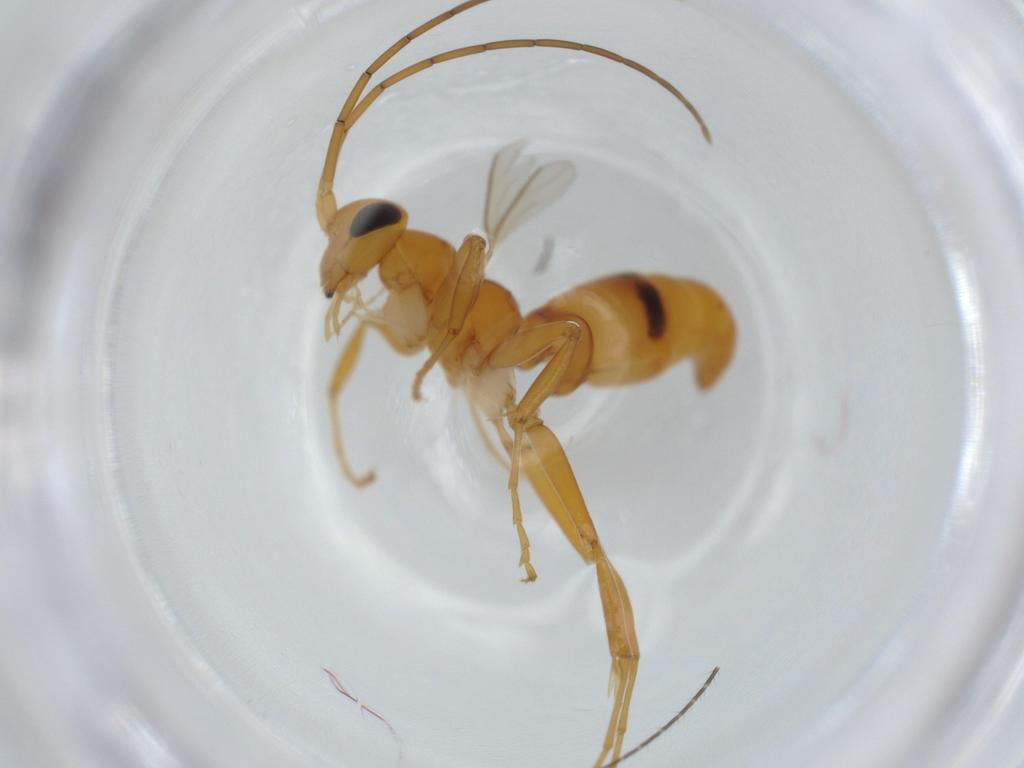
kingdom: Animalia
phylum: Arthropoda
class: Insecta
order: Hymenoptera
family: Rhopalosomatidae
